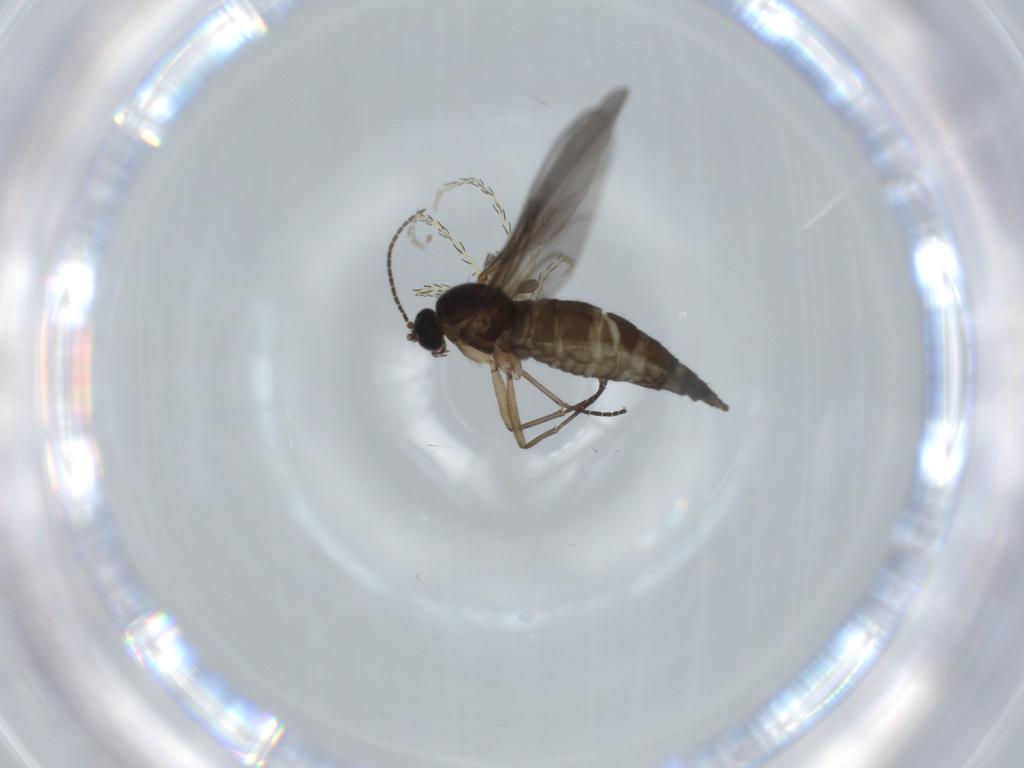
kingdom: Animalia
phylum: Arthropoda
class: Insecta
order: Diptera
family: Sciaridae
